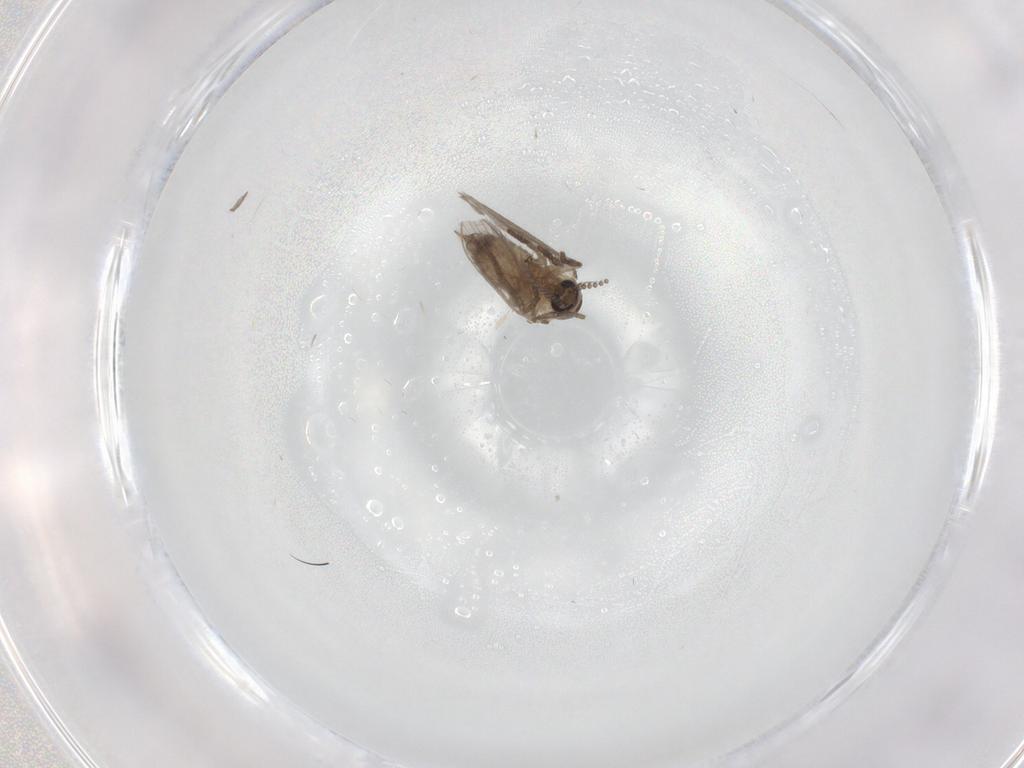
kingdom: Animalia
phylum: Arthropoda
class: Insecta
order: Diptera
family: Psychodidae
